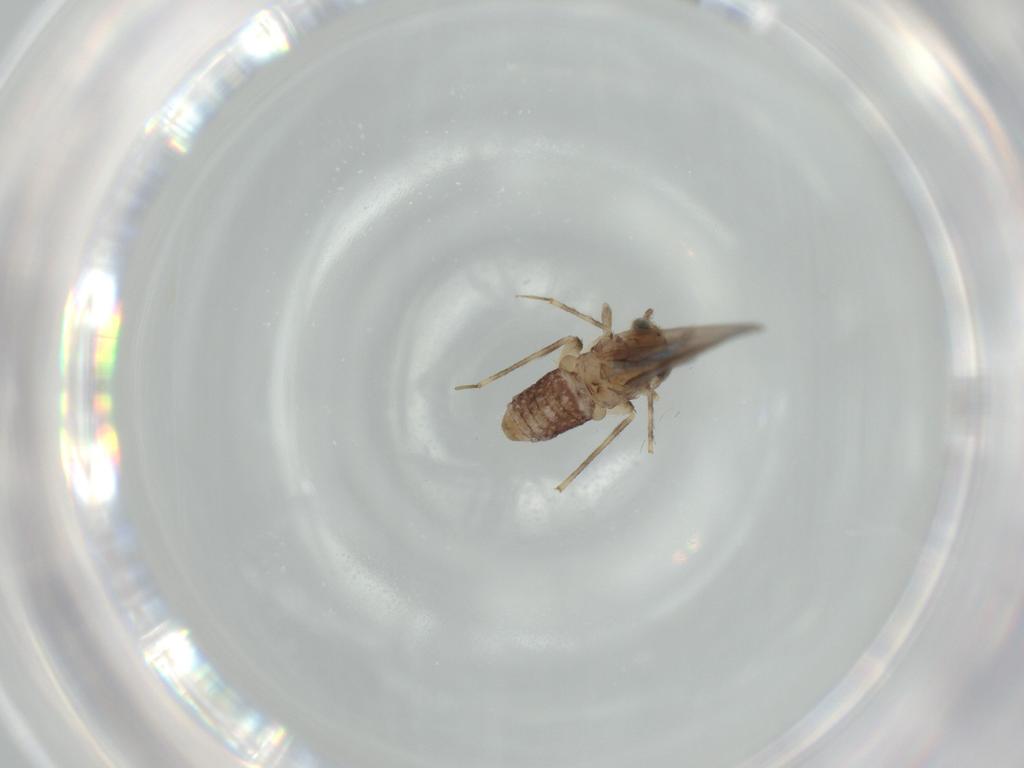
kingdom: Animalia
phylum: Arthropoda
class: Insecta
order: Psocodea
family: Lepidopsocidae
